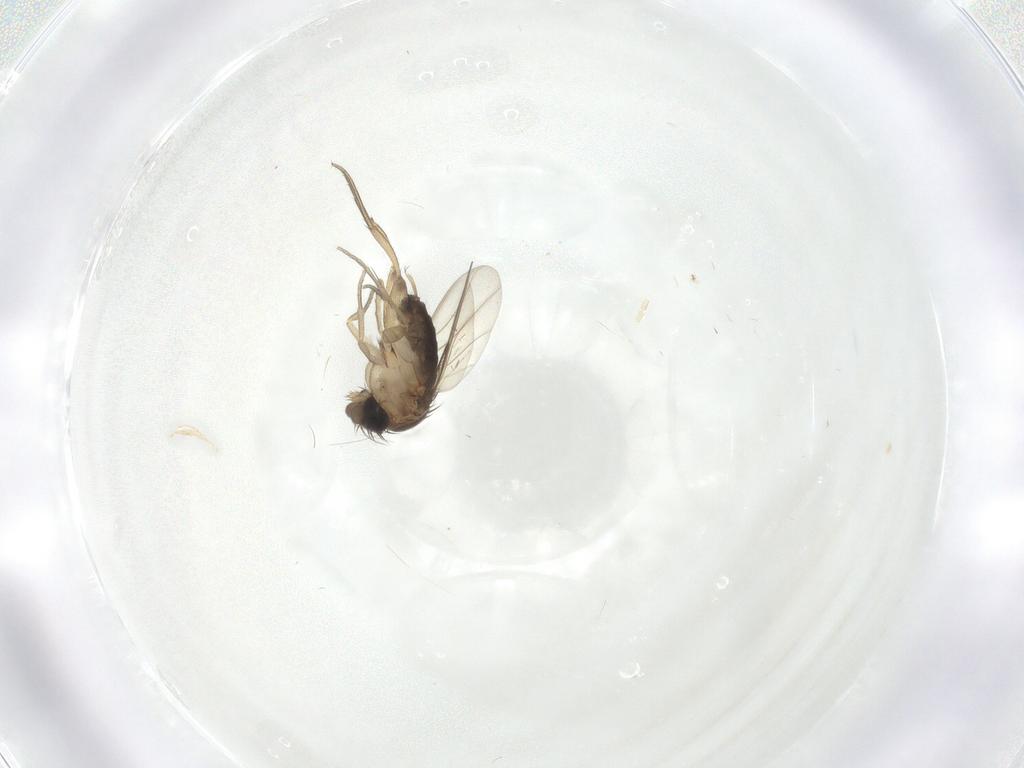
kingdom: Animalia
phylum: Arthropoda
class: Insecta
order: Diptera
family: Phoridae
